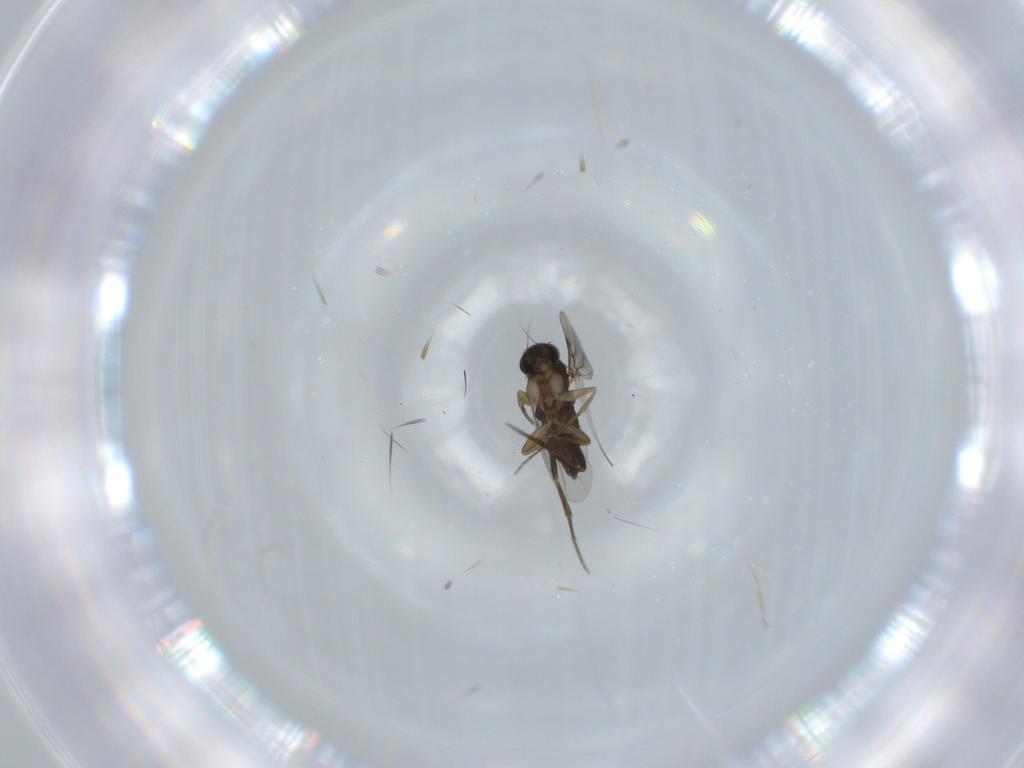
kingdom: Animalia
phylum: Arthropoda
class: Insecta
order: Diptera
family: Phoridae
